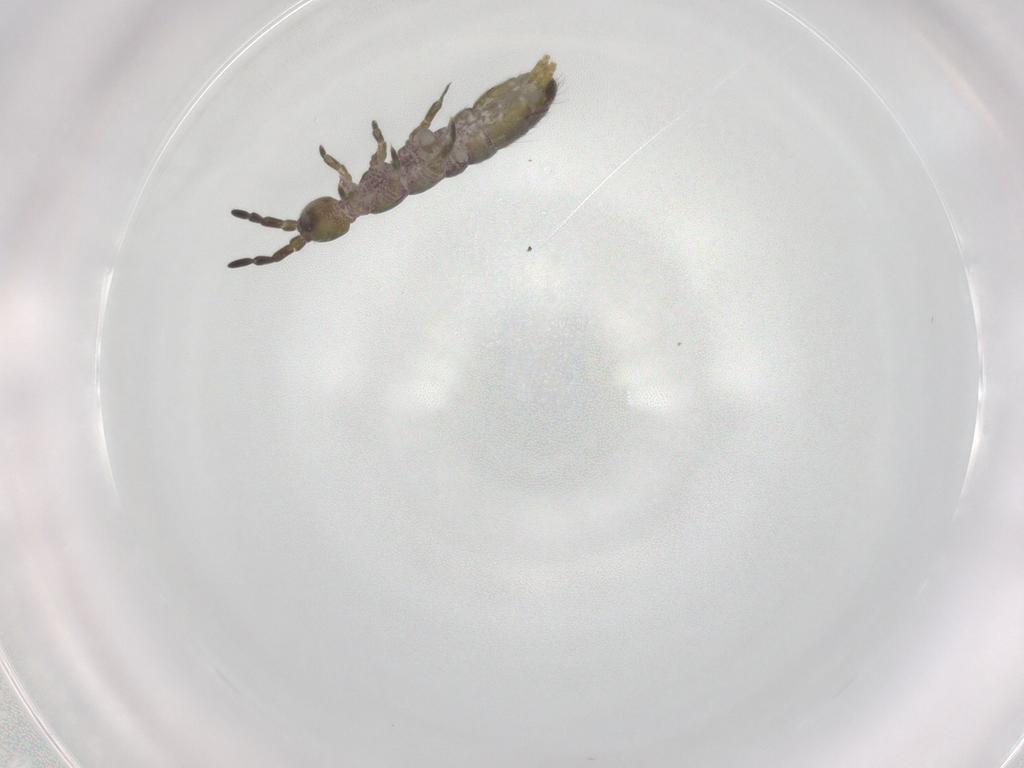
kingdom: Animalia
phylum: Arthropoda
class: Collembola
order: Entomobryomorpha
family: Isotomidae
